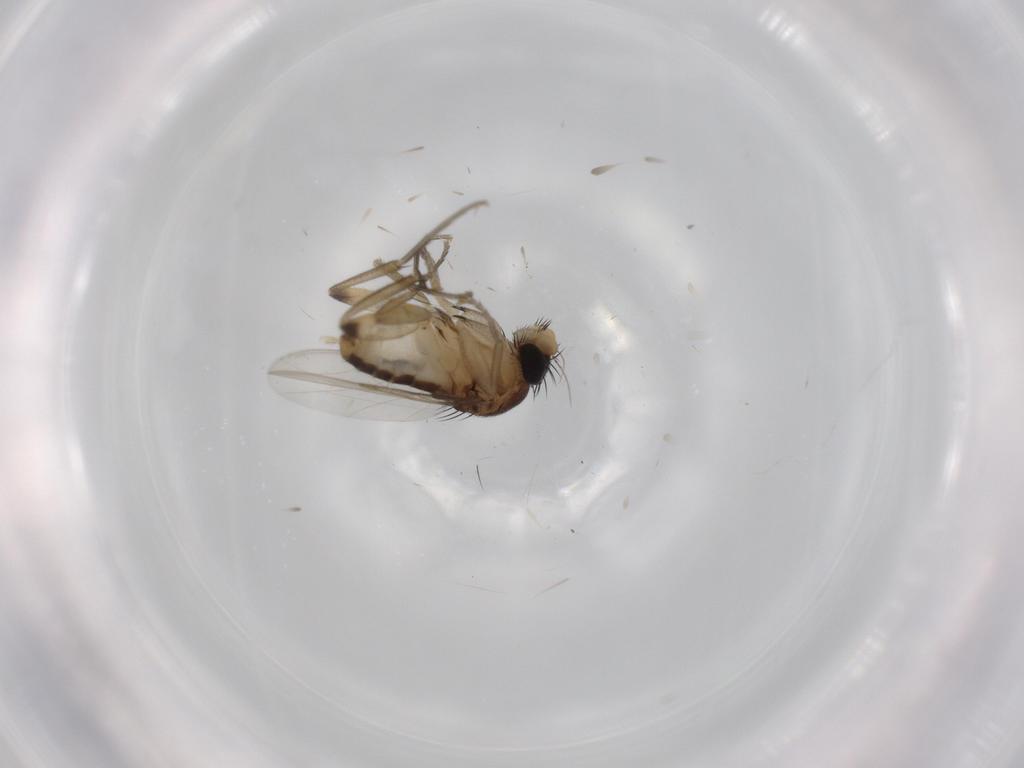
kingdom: Animalia
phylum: Arthropoda
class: Insecta
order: Diptera
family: Phoridae
